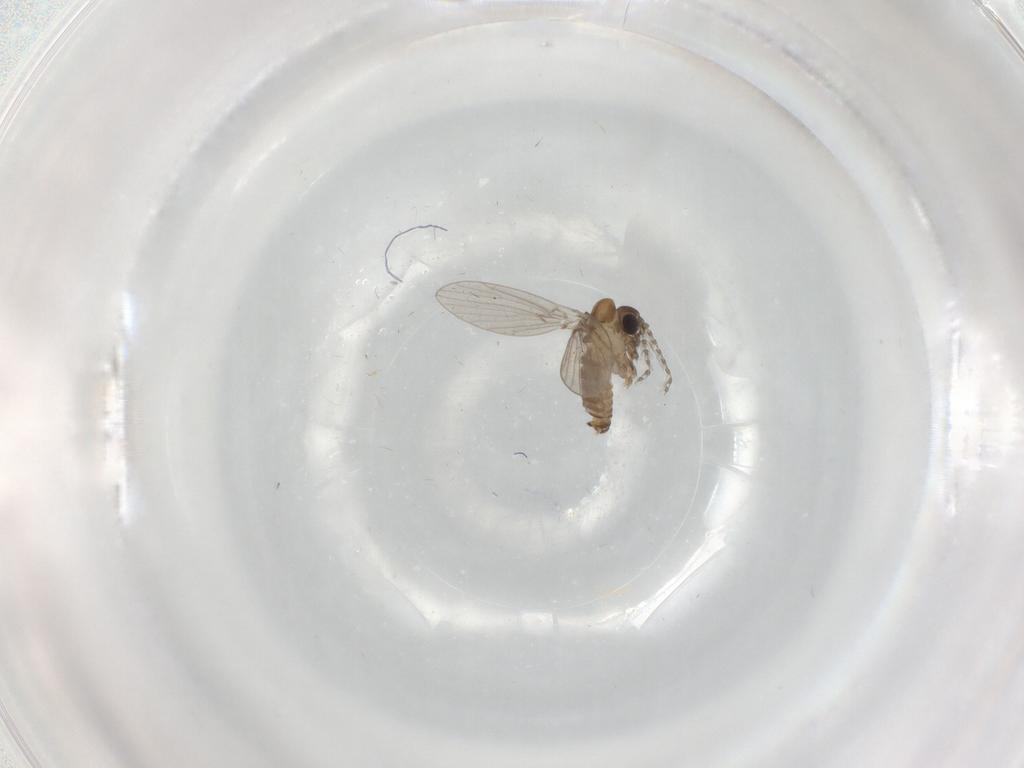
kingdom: Animalia
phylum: Arthropoda
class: Insecta
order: Diptera
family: Psychodidae
